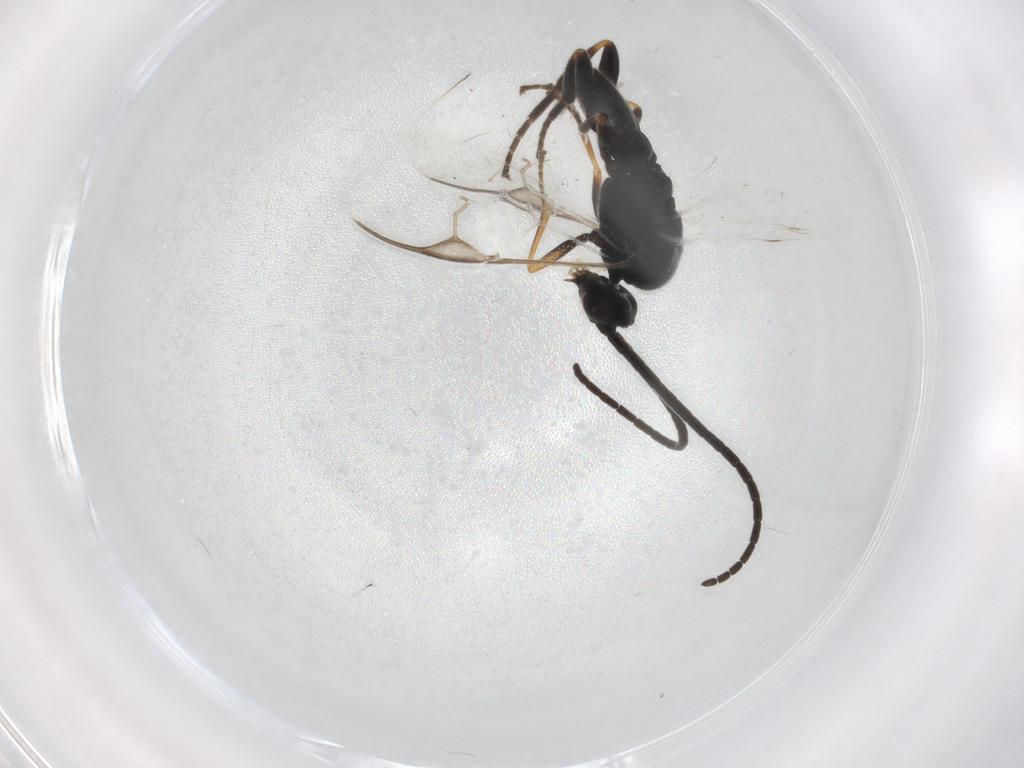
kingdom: Animalia
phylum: Arthropoda
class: Insecta
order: Hymenoptera
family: Braconidae
